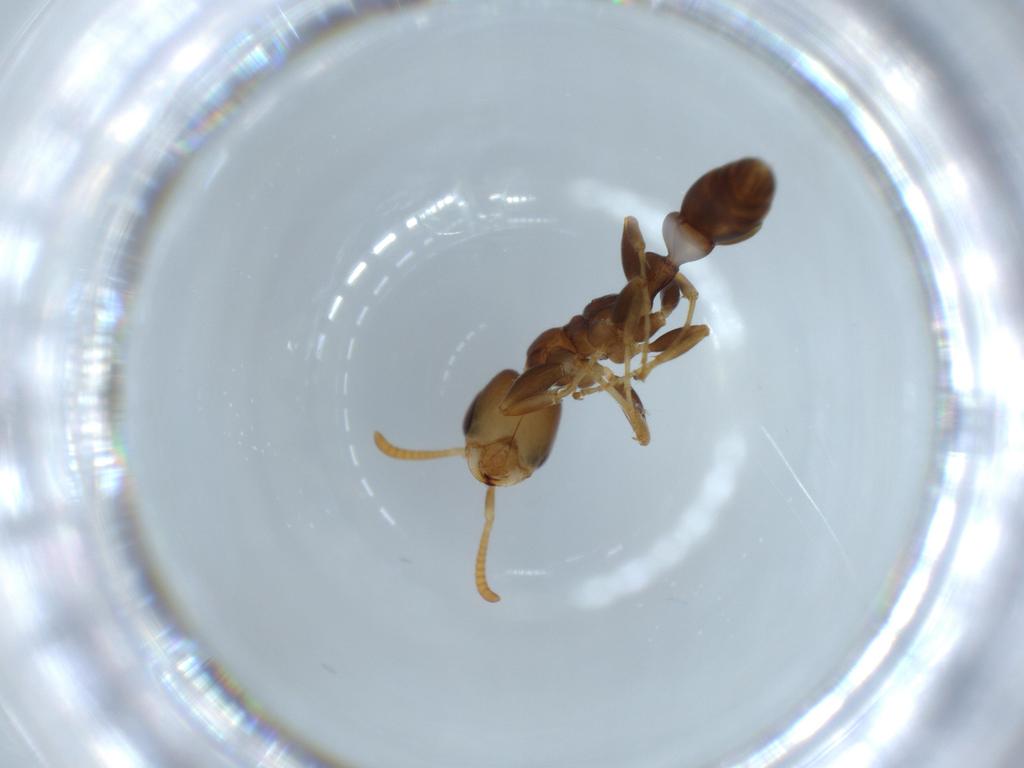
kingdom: Animalia
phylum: Arthropoda
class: Insecta
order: Hymenoptera
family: Formicidae
